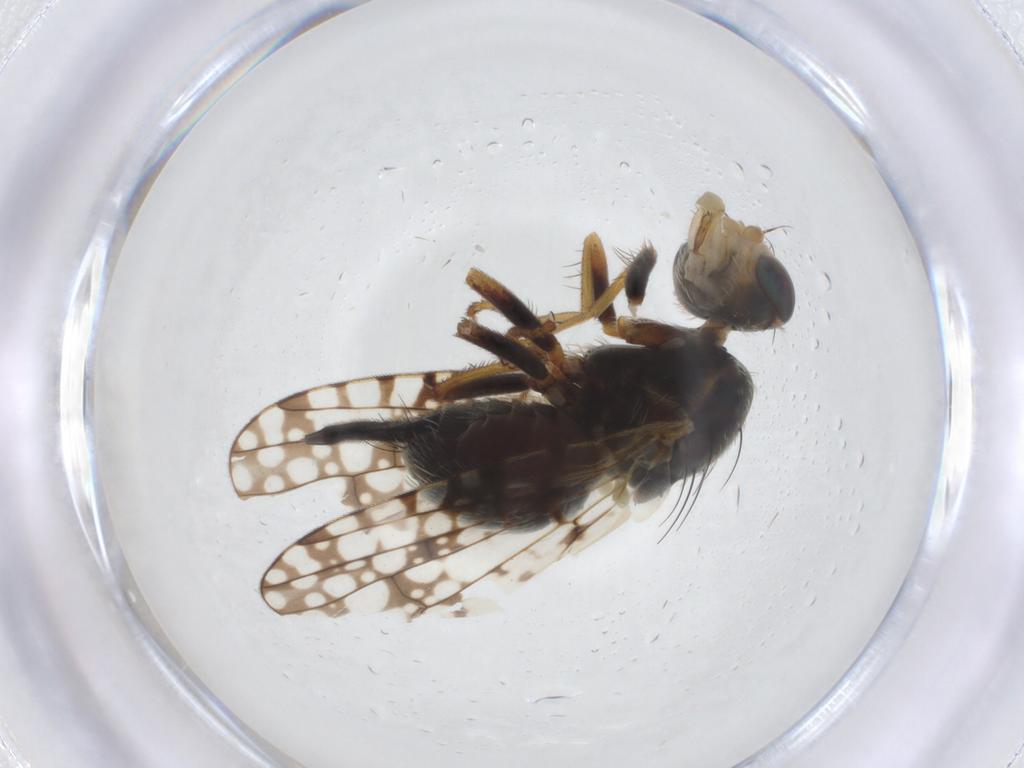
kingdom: Animalia
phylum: Arthropoda
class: Insecta
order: Diptera
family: Tephritidae
